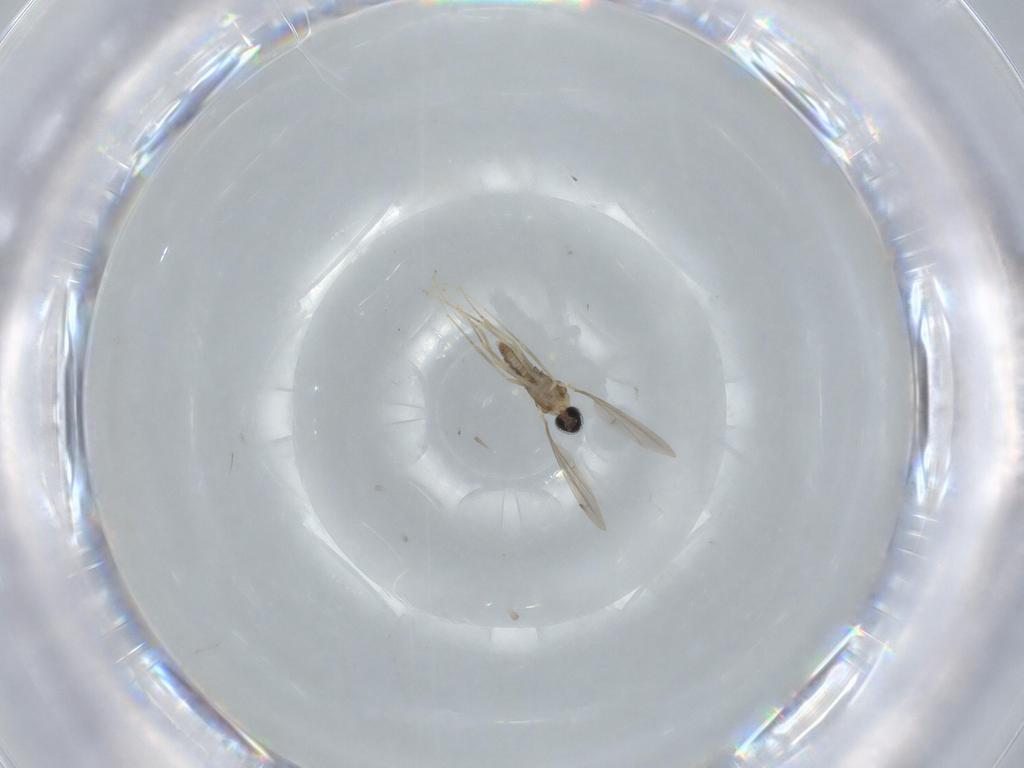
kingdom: Animalia
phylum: Arthropoda
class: Insecta
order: Diptera
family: Cecidomyiidae
